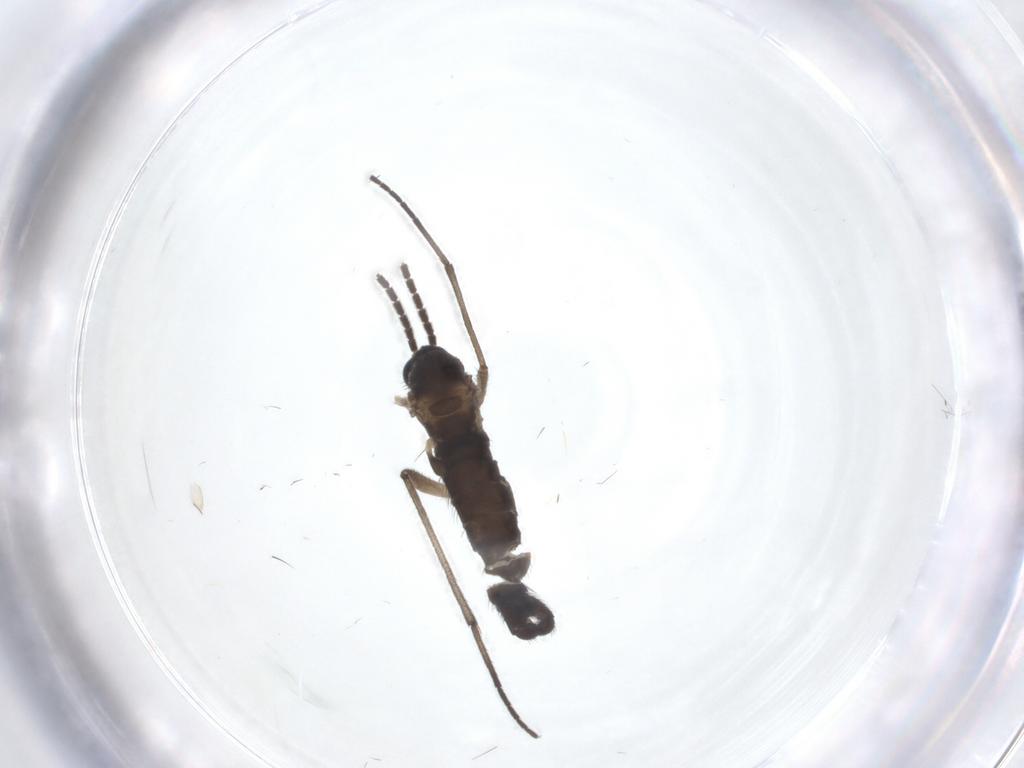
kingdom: Animalia
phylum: Arthropoda
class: Insecta
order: Diptera
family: Sciaridae
